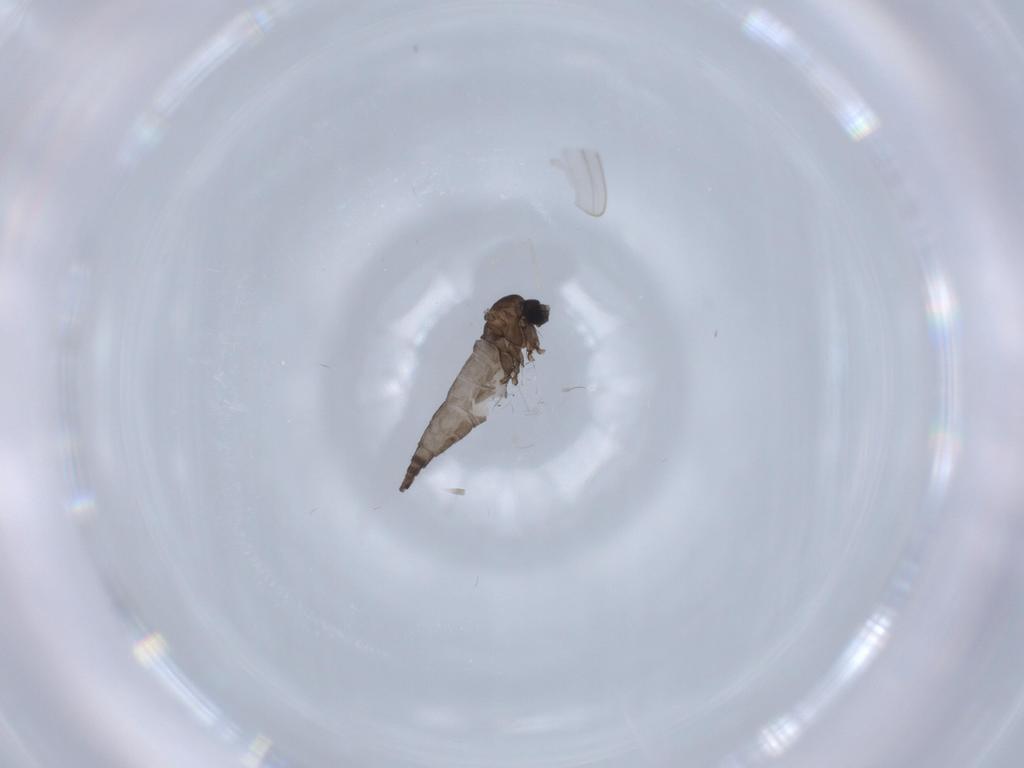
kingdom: Animalia
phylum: Arthropoda
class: Insecta
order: Diptera
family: Sciaridae
